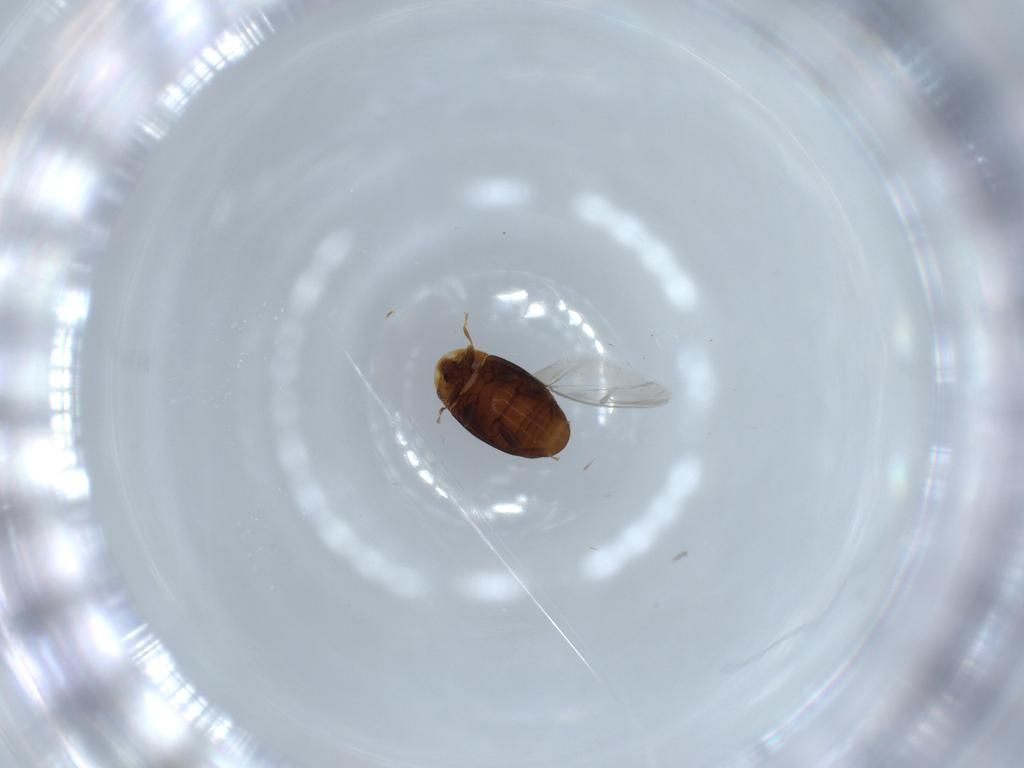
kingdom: Animalia
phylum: Arthropoda
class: Insecta
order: Coleoptera
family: Corylophidae
